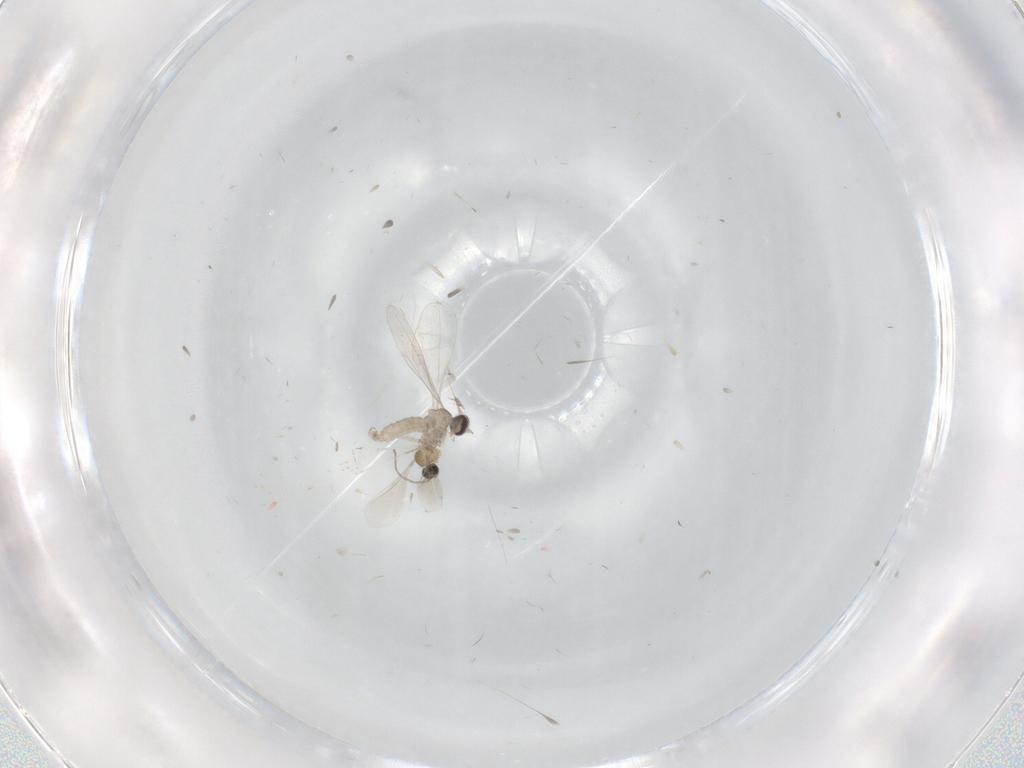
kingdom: Animalia
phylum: Arthropoda
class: Insecta
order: Diptera
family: Cecidomyiidae
